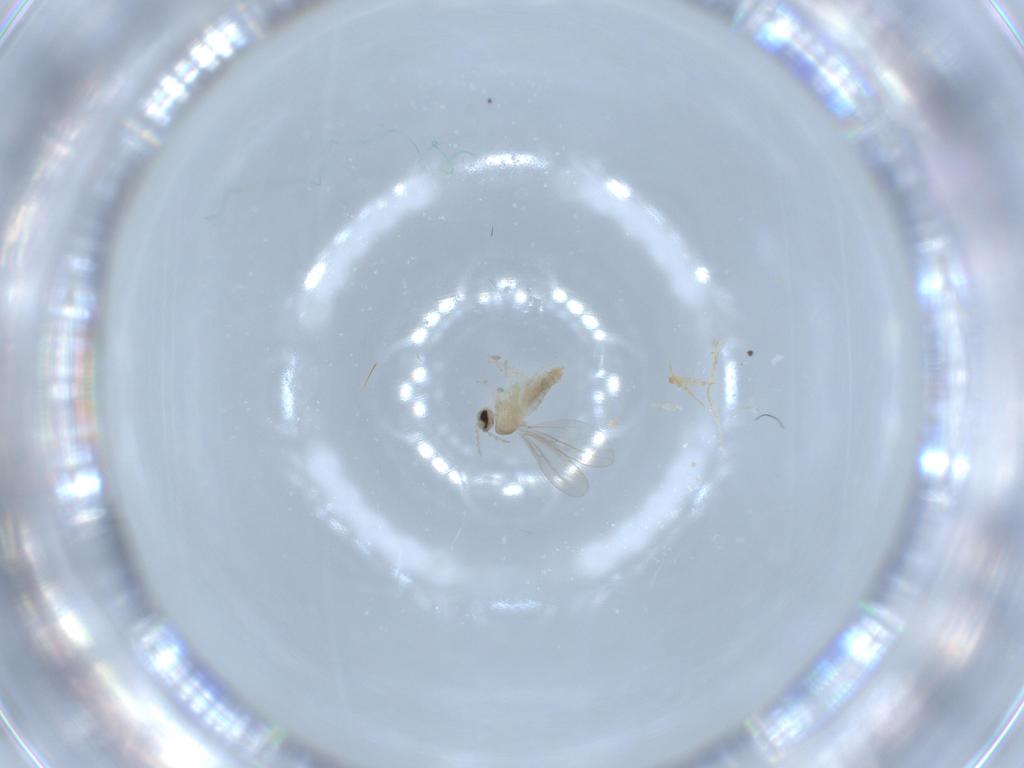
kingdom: Animalia
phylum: Arthropoda
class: Insecta
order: Diptera
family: Cecidomyiidae
